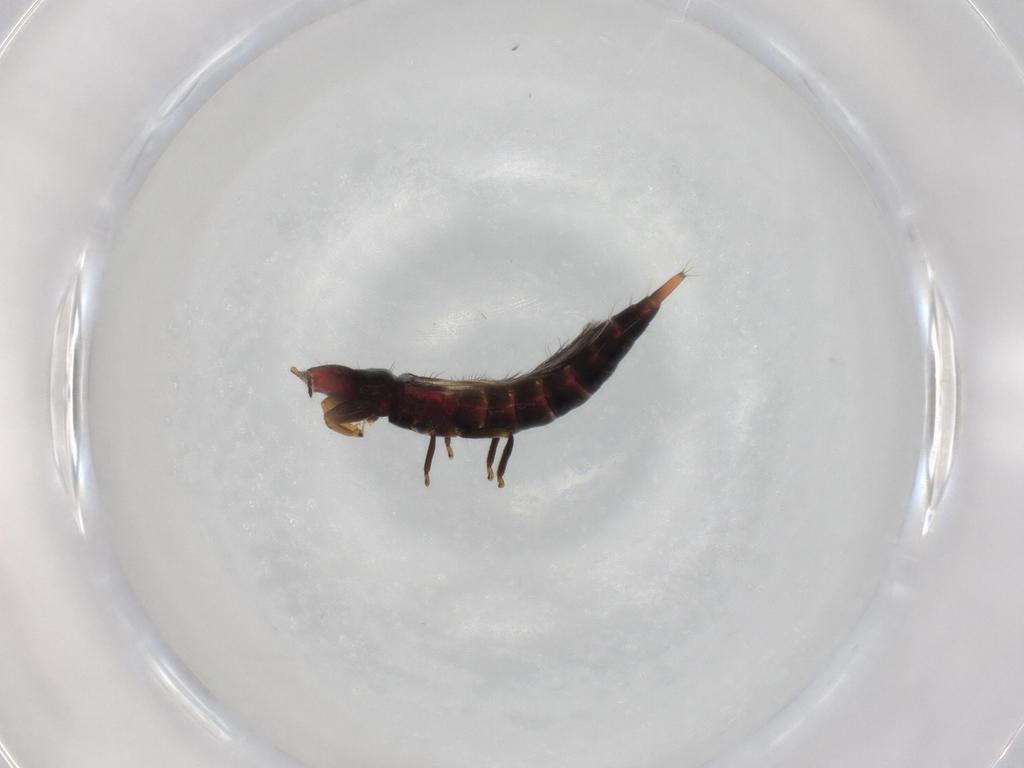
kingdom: Animalia
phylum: Arthropoda
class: Insecta
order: Thysanoptera
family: Phlaeothripidae
